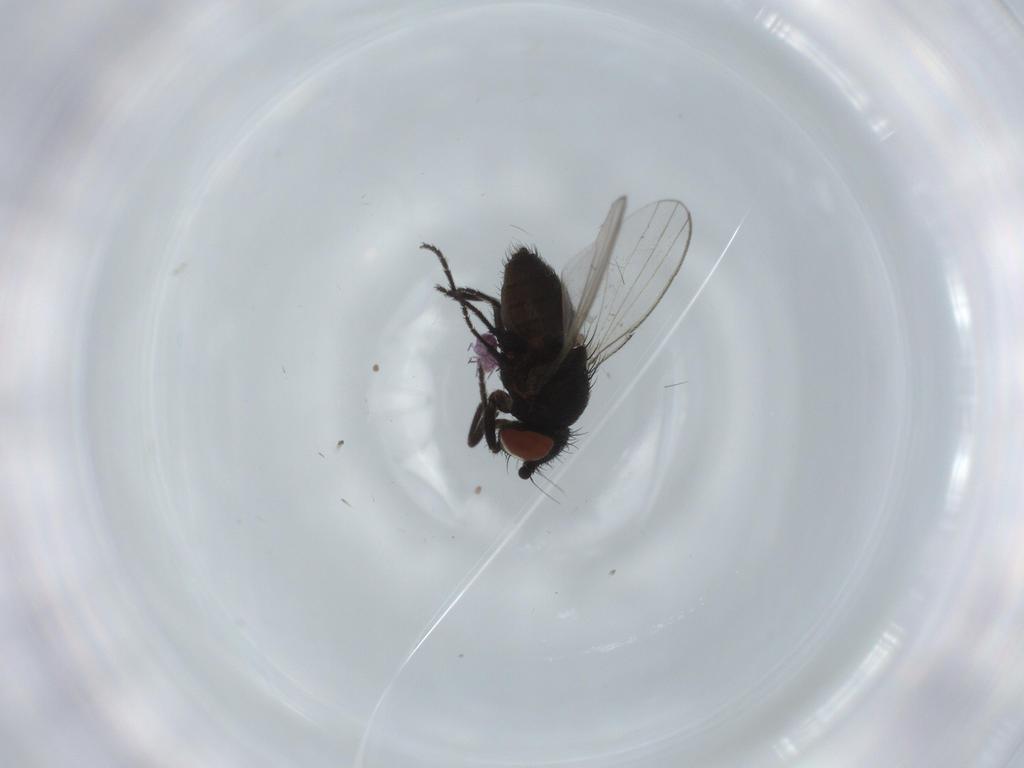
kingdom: Animalia
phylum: Arthropoda
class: Insecta
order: Diptera
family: Milichiidae
